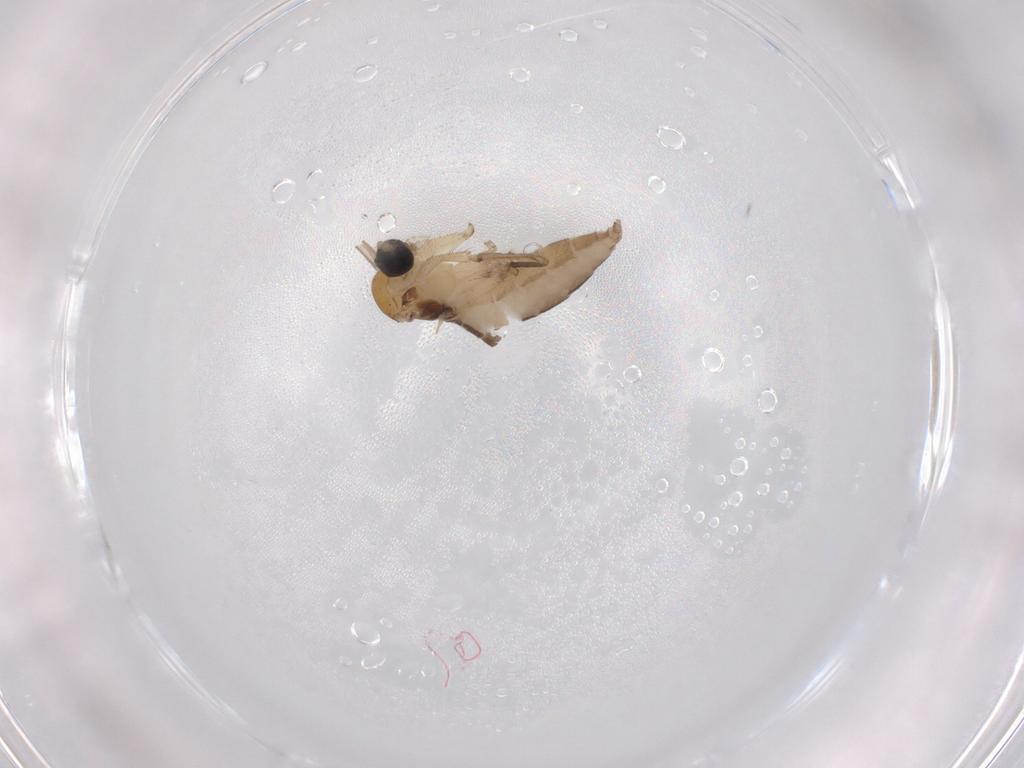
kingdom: Animalia
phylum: Arthropoda
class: Insecta
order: Diptera
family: Sciaridae
